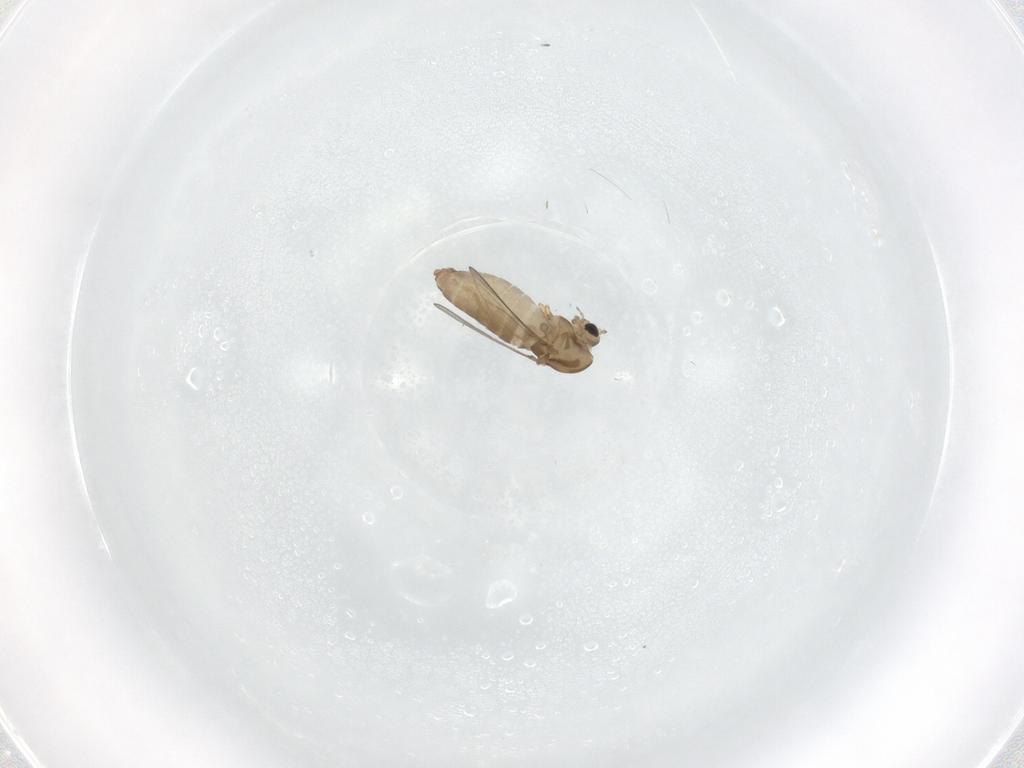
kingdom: Animalia
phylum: Arthropoda
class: Insecta
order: Diptera
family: Chironomidae
